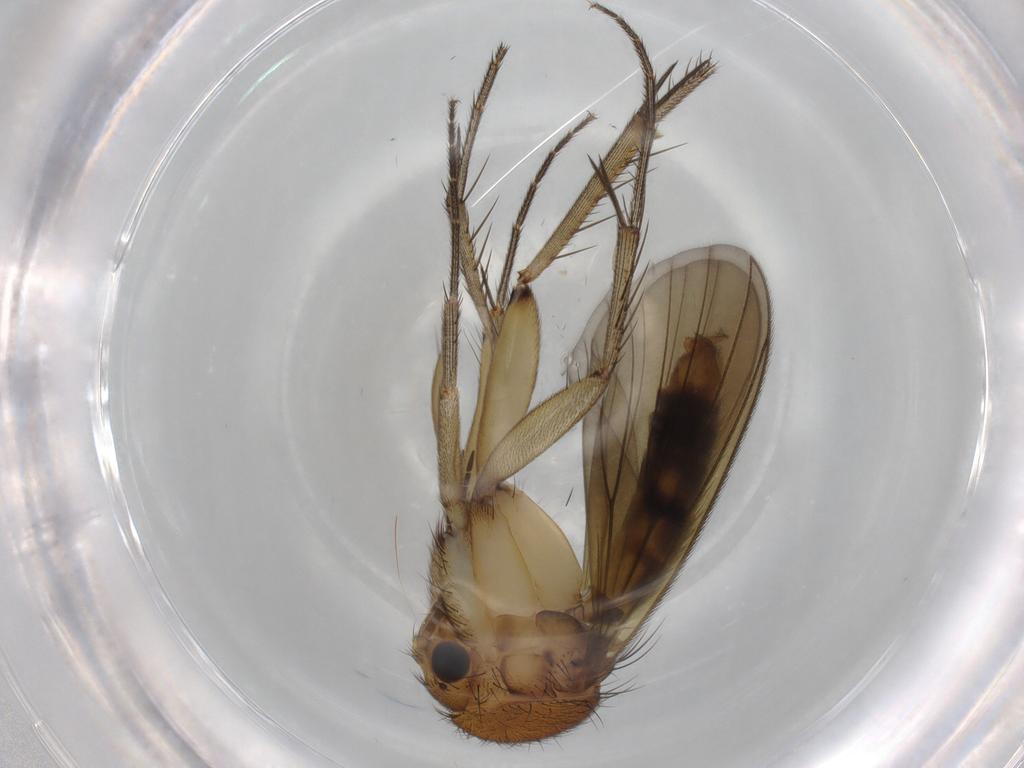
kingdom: Animalia
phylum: Arthropoda
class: Insecta
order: Diptera
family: Mycetophilidae
